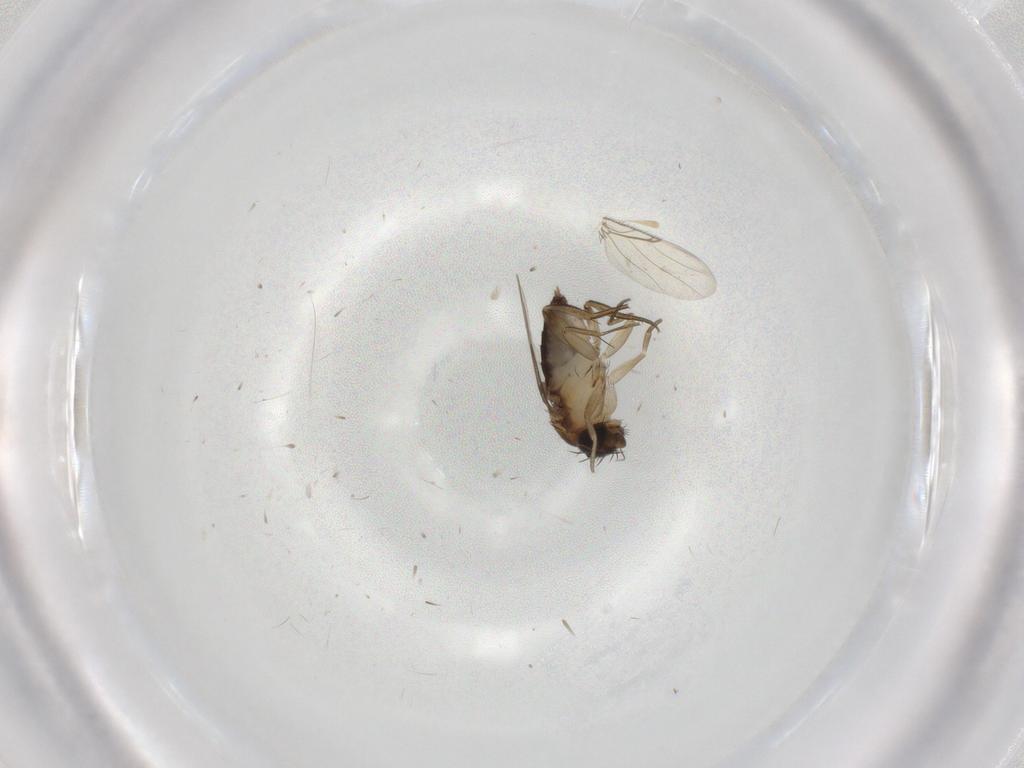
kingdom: Animalia
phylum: Arthropoda
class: Insecta
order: Diptera
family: Phoridae
